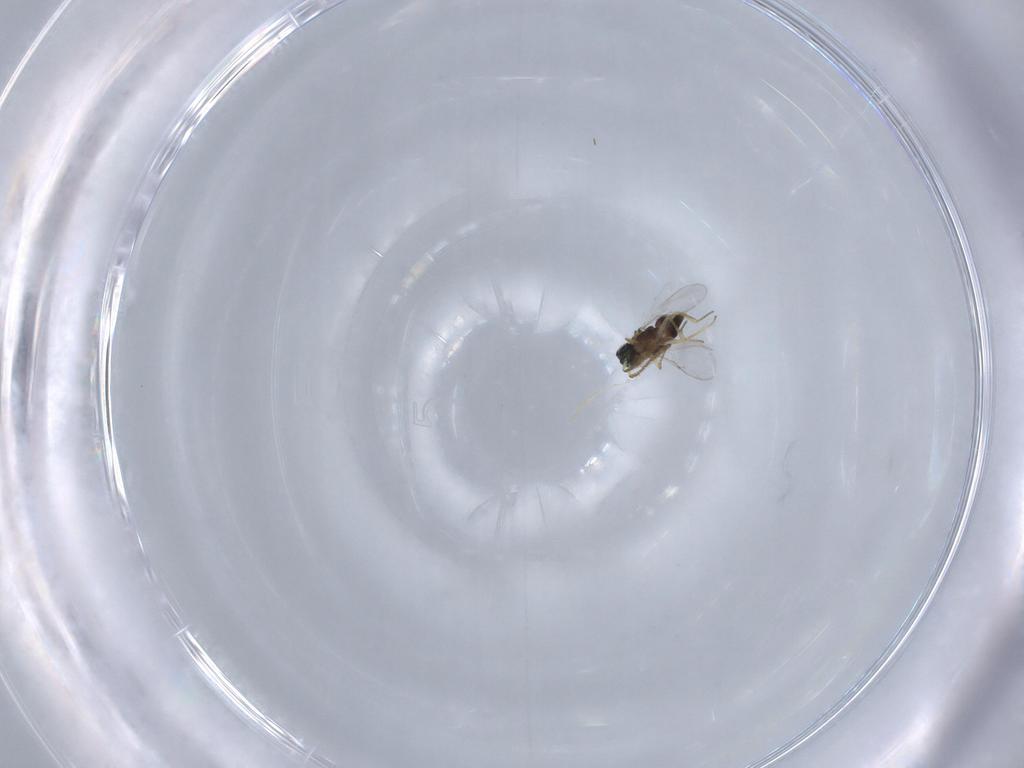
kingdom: Animalia
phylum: Arthropoda
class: Insecta
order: Hymenoptera
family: Encyrtidae
